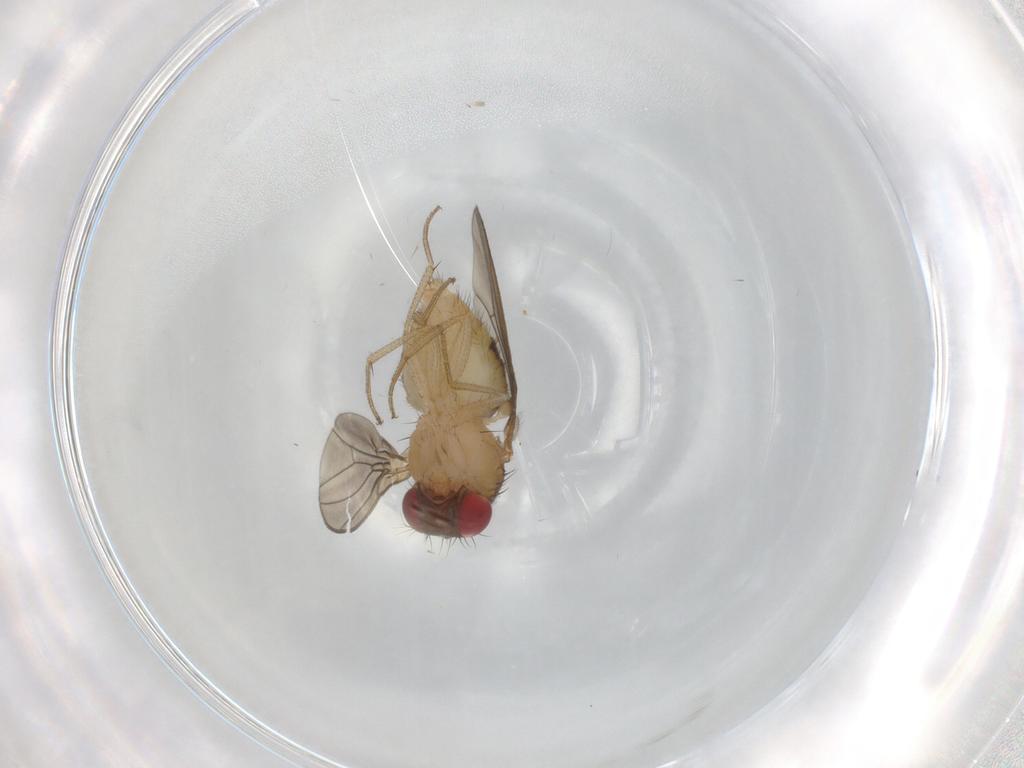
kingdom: Animalia
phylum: Arthropoda
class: Insecta
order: Diptera
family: Drosophilidae
